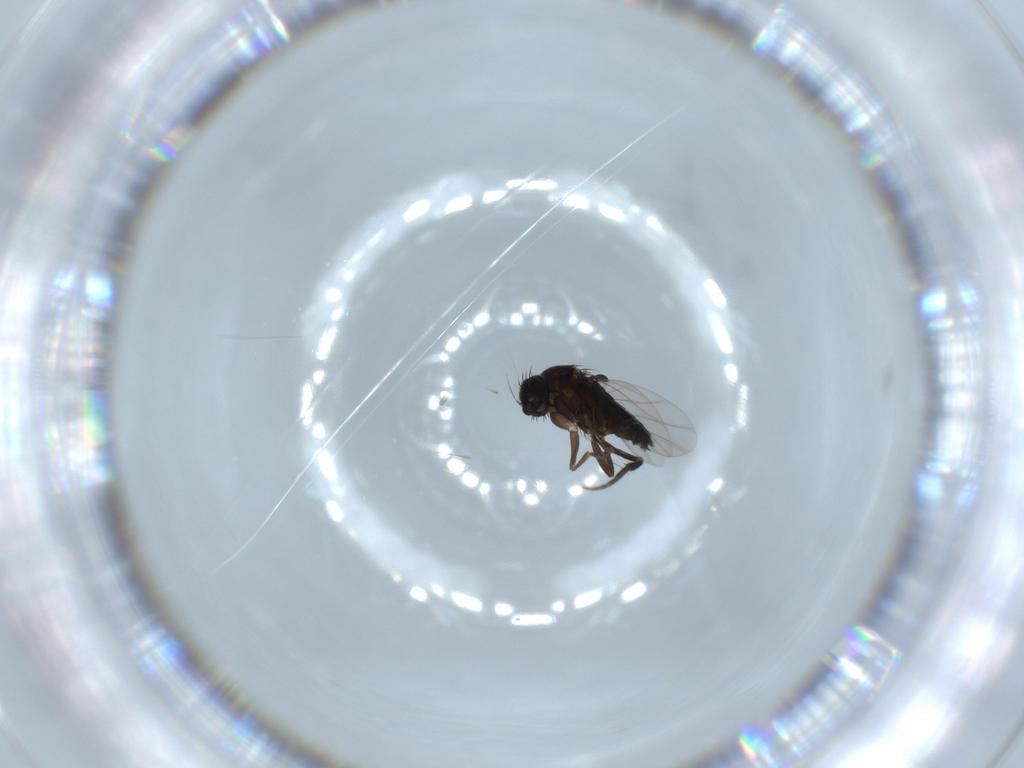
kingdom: Animalia
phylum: Arthropoda
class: Insecta
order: Diptera
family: Phoridae
